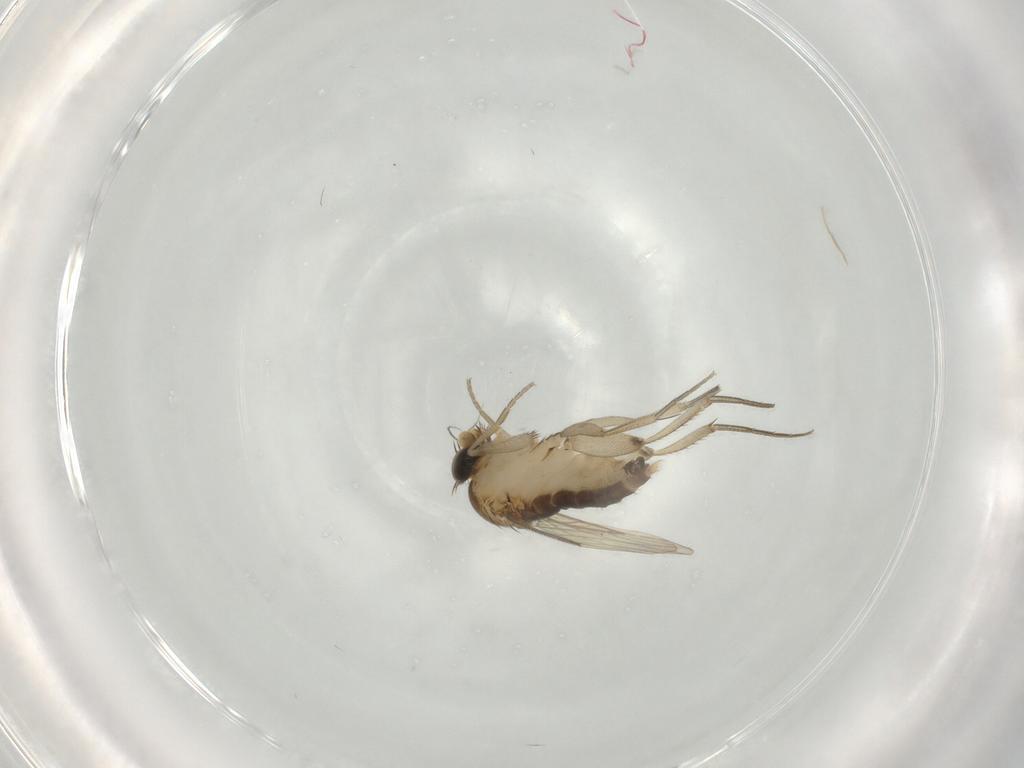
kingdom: Animalia
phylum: Arthropoda
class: Insecta
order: Diptera
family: Phoridae
